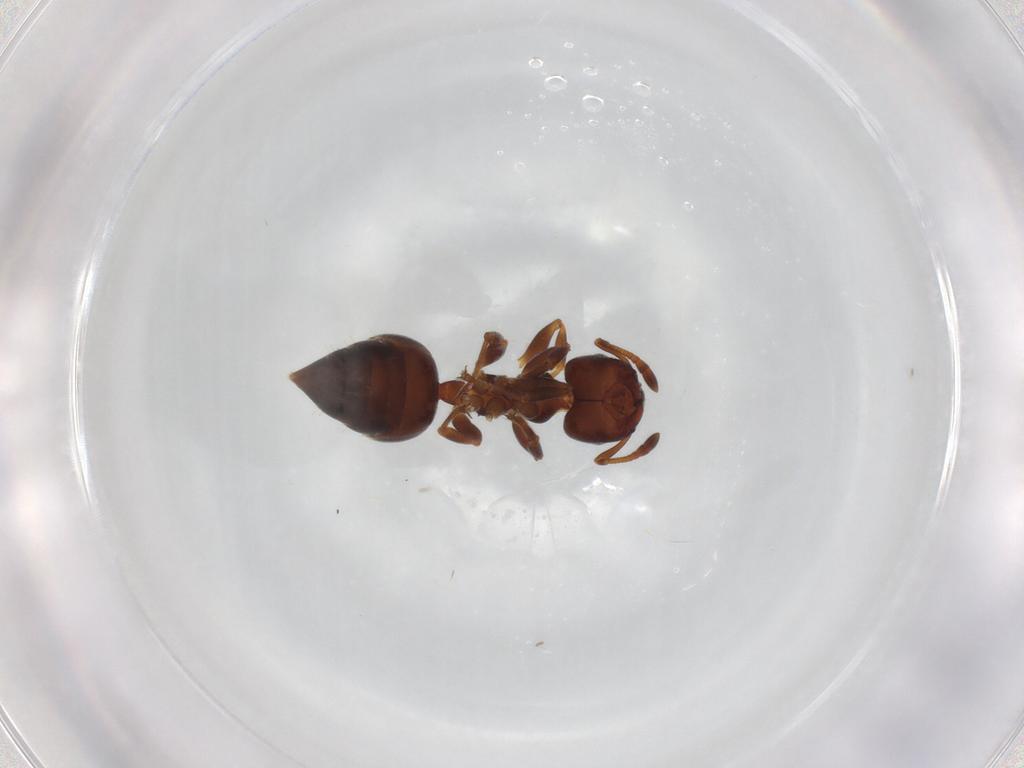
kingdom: Animalia
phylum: Arthropoda
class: Insecta
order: Hymenoptera
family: Formicidae
